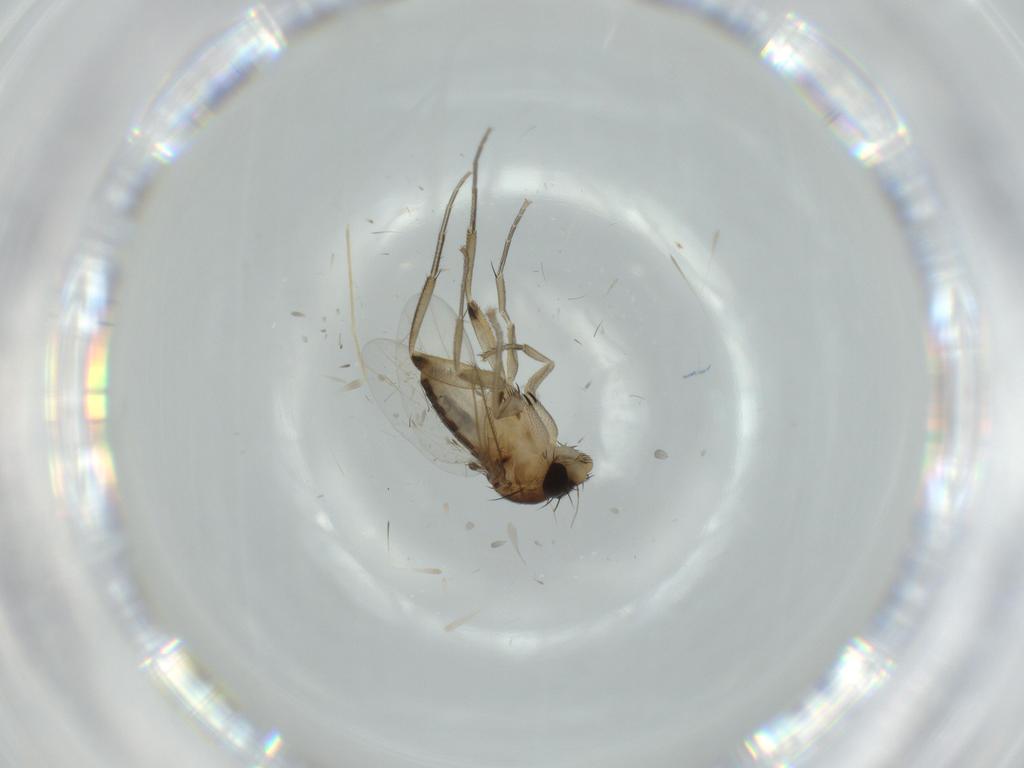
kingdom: Animalia
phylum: Arthropoda
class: Insecta
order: Diptera
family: Phoridae
